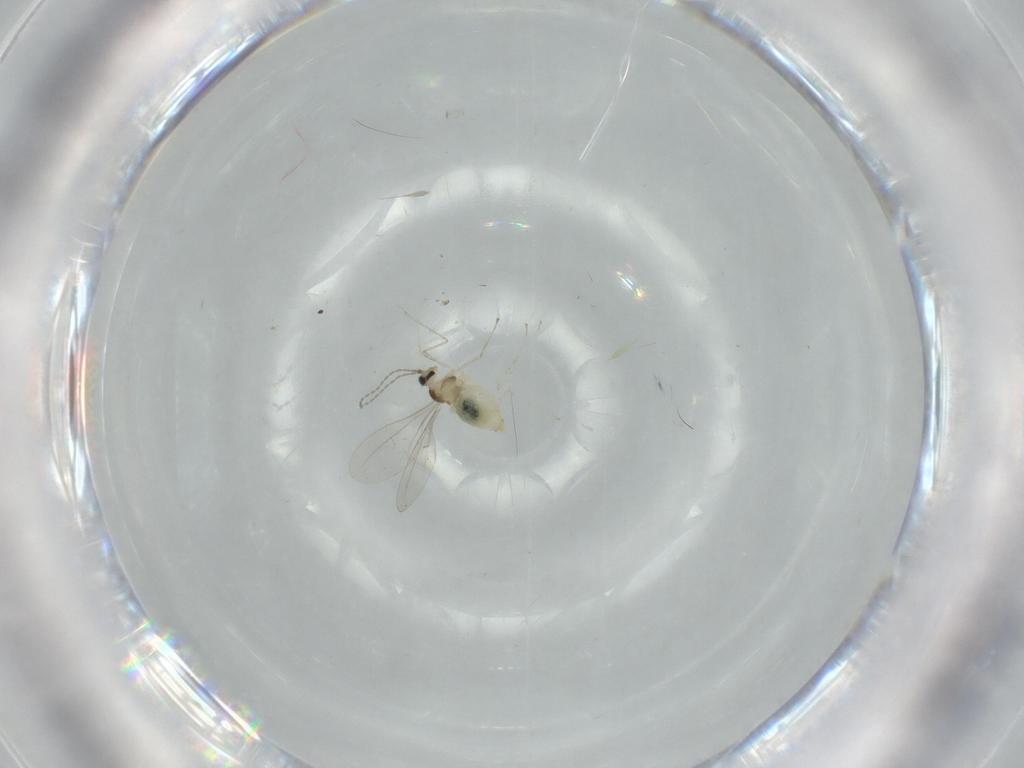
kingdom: Animalia
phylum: Arthropoda
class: Insecta
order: Diptera
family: Cecidomyiidae
